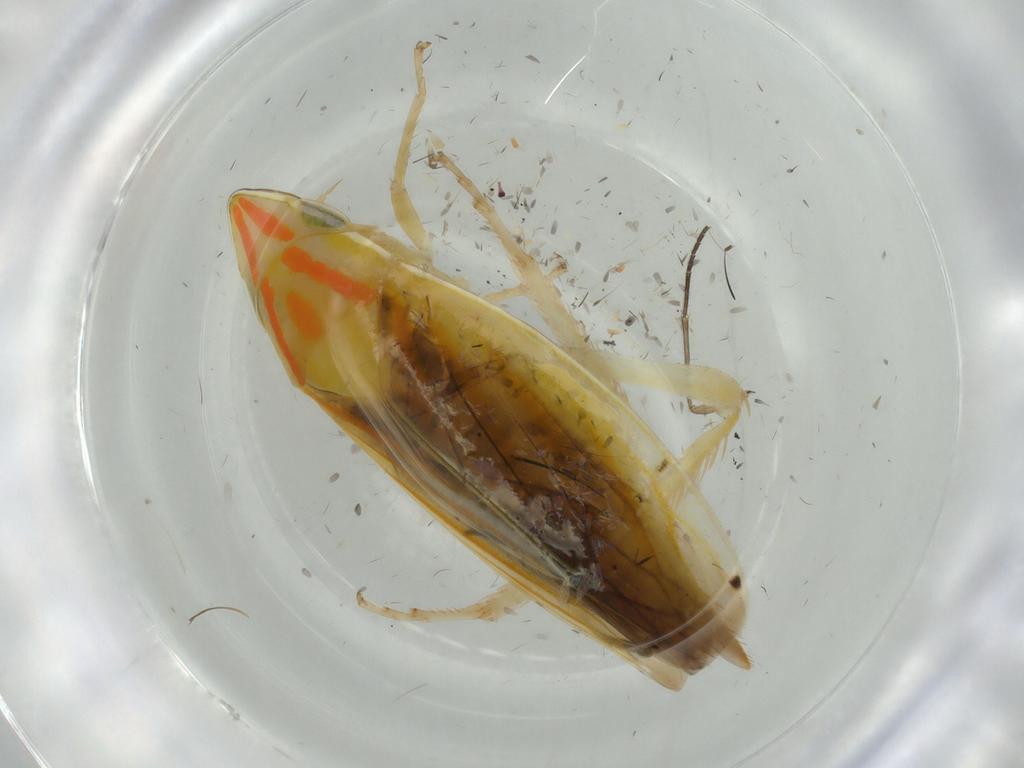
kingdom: Animalia
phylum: Arthropoda
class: Insecta
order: Hemiptera
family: Cicadellidae
